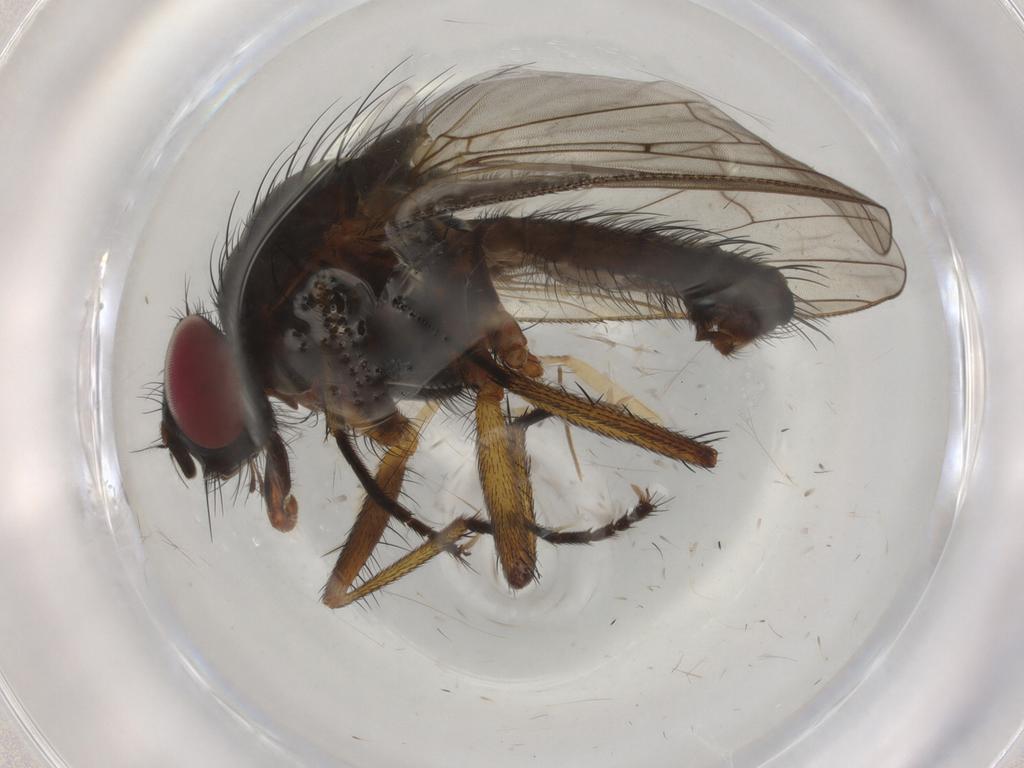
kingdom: Animalia
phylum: Arthropoda
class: Insecta
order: Diptera
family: Anthomyiidae
